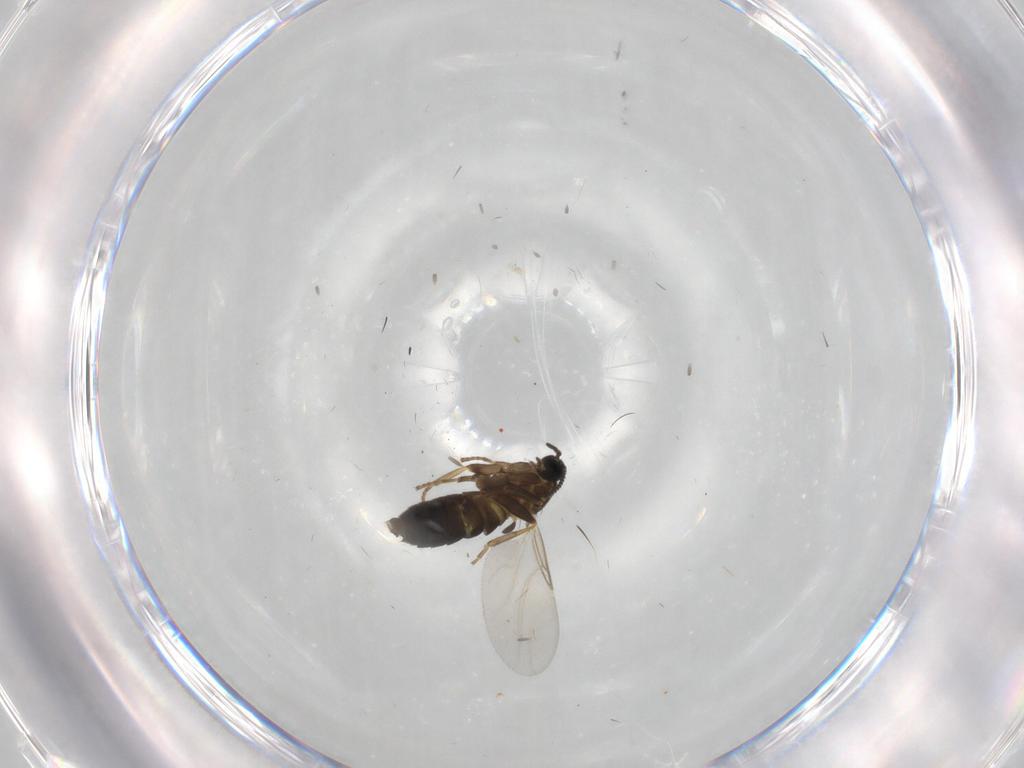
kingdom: Animalia
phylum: Arthropoda
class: Insecta
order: Diptera
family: Scatopsidae
